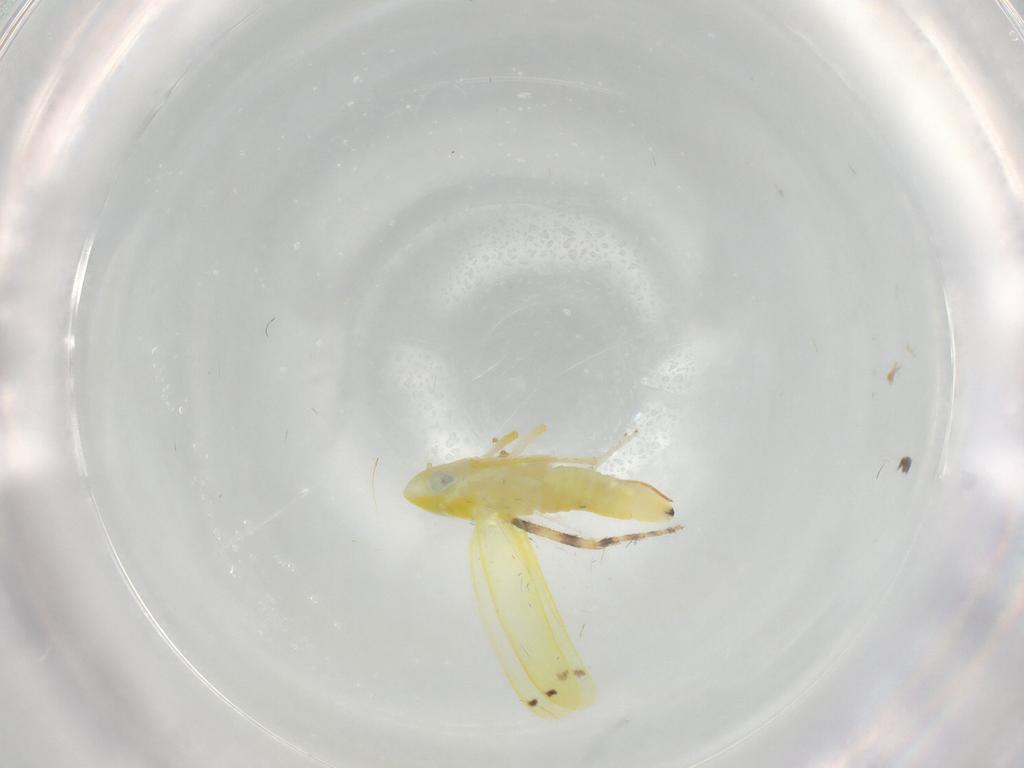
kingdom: Animalia
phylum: Arthropoda
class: Insecta
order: Hemiptera
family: Cicadellidae
